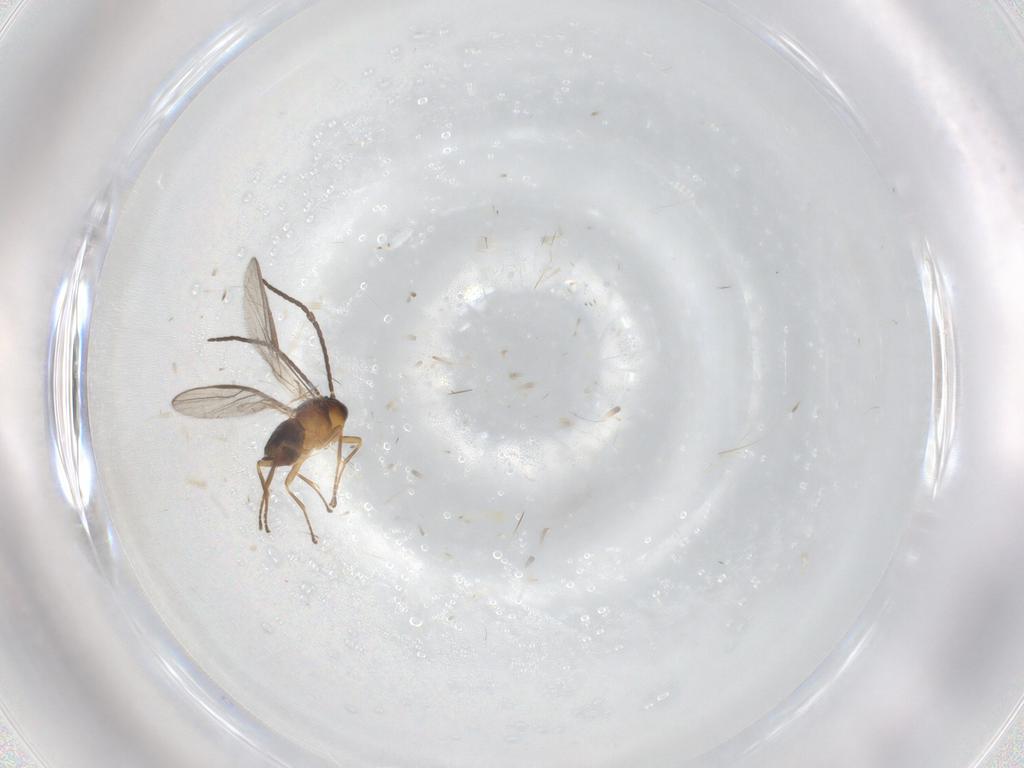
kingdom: Animalia
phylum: Arthropoda
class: Insecta
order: Hymenoptera
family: Braconidae
